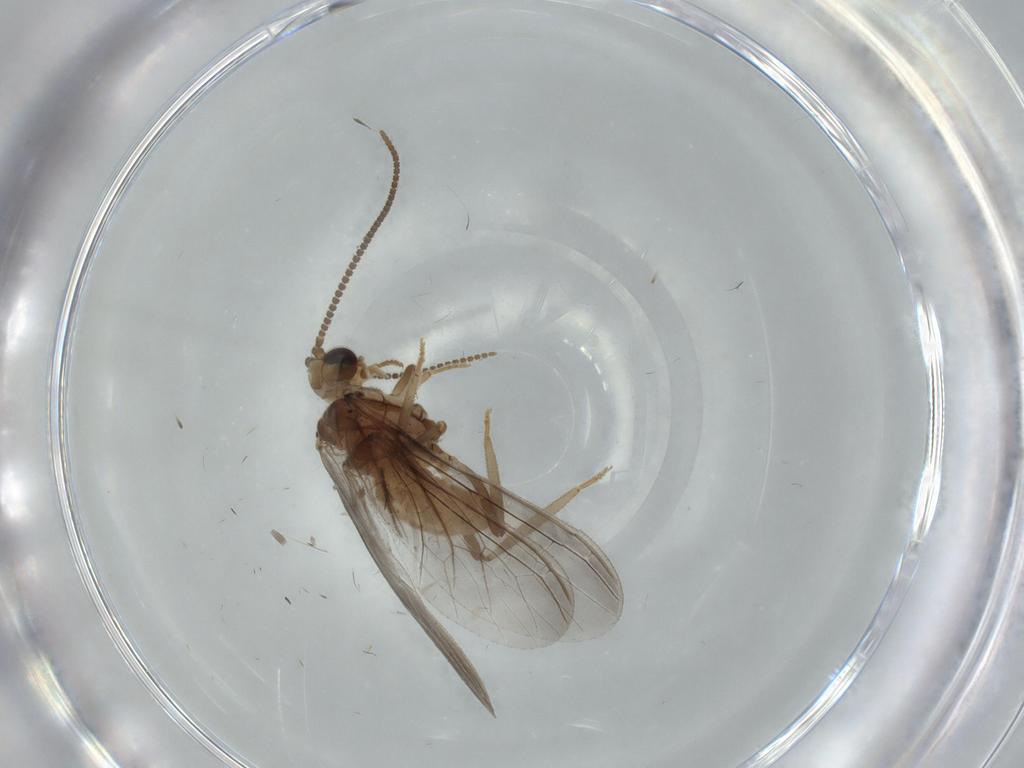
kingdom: Animalia
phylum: Arthropoda
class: Insecta
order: Neuroptera
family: Coniopterygidae
